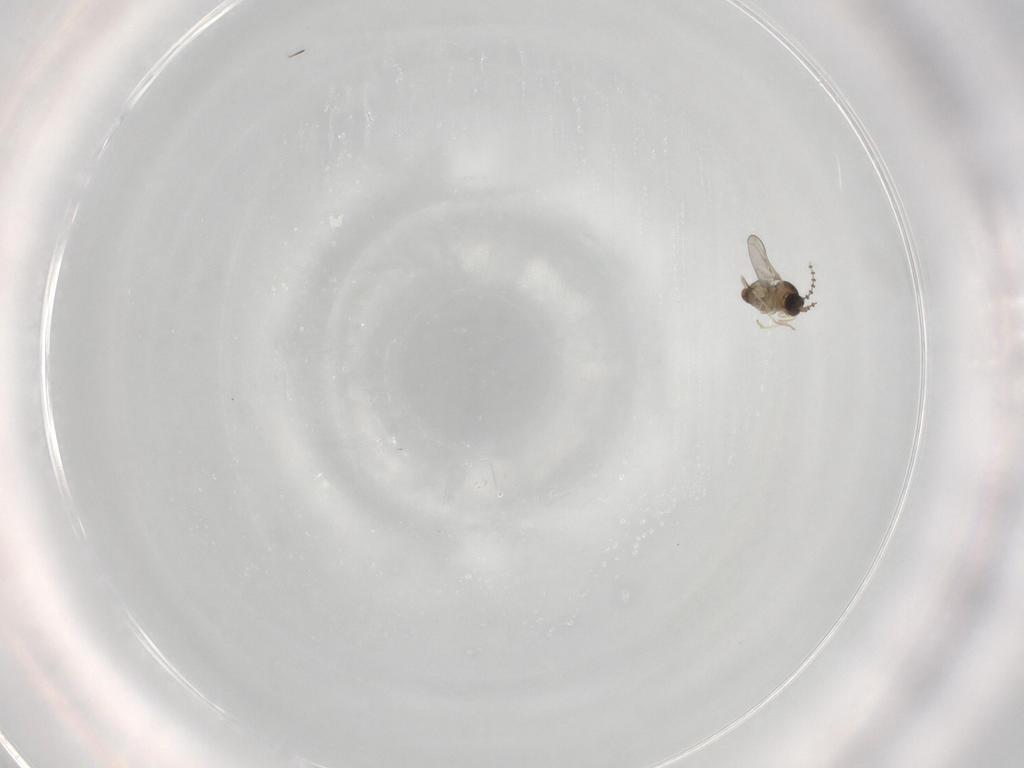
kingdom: Animalia
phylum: Arthropoda
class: Insecta
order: Diptera
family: Cecidomyiidae
